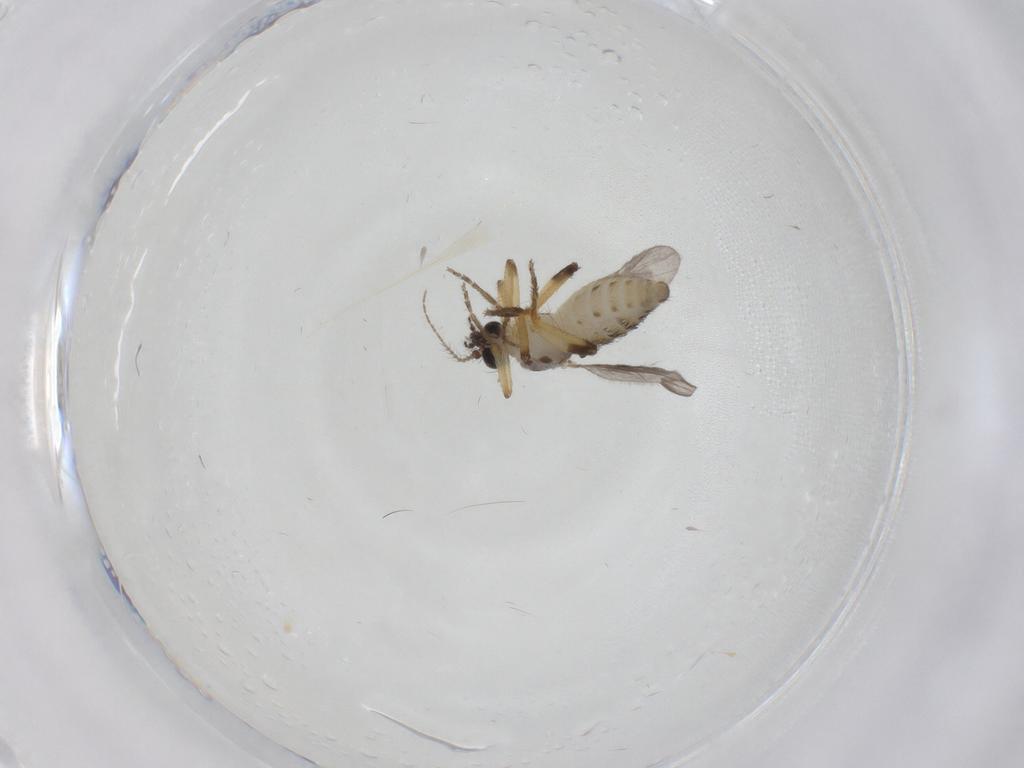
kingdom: Animalia
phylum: Arthropoda
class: Insecta
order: Diptera
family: Ceratopogonidae
